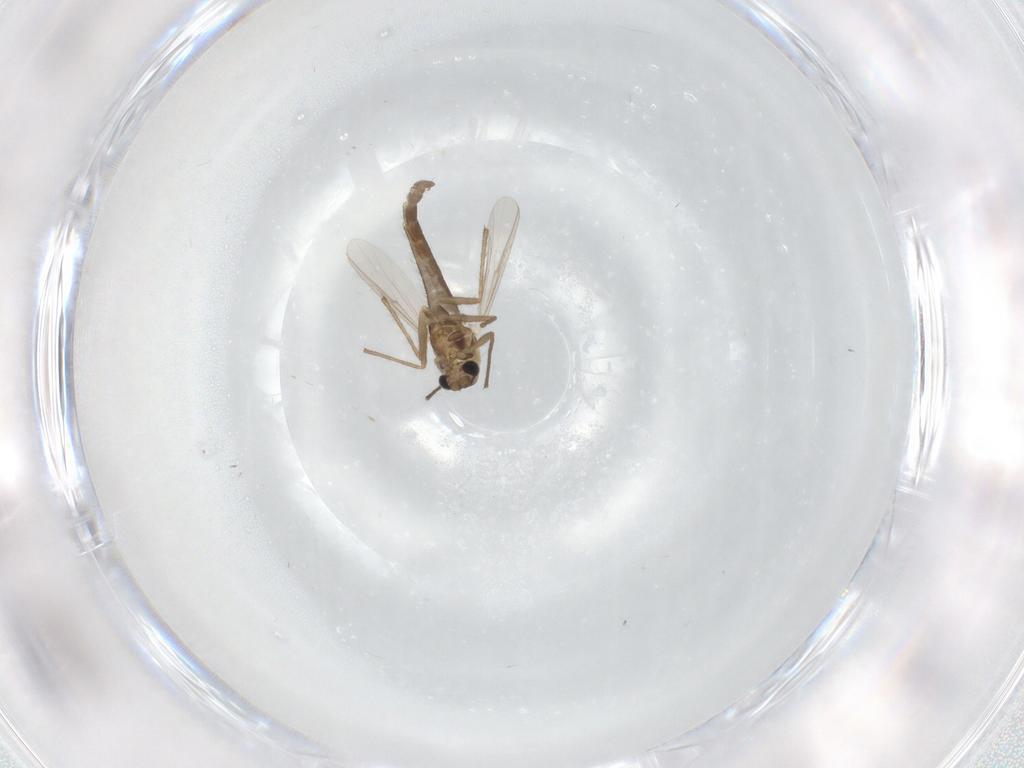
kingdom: Animalia
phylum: Arthropoda
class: Insecta
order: Diptera
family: Chironomidae
